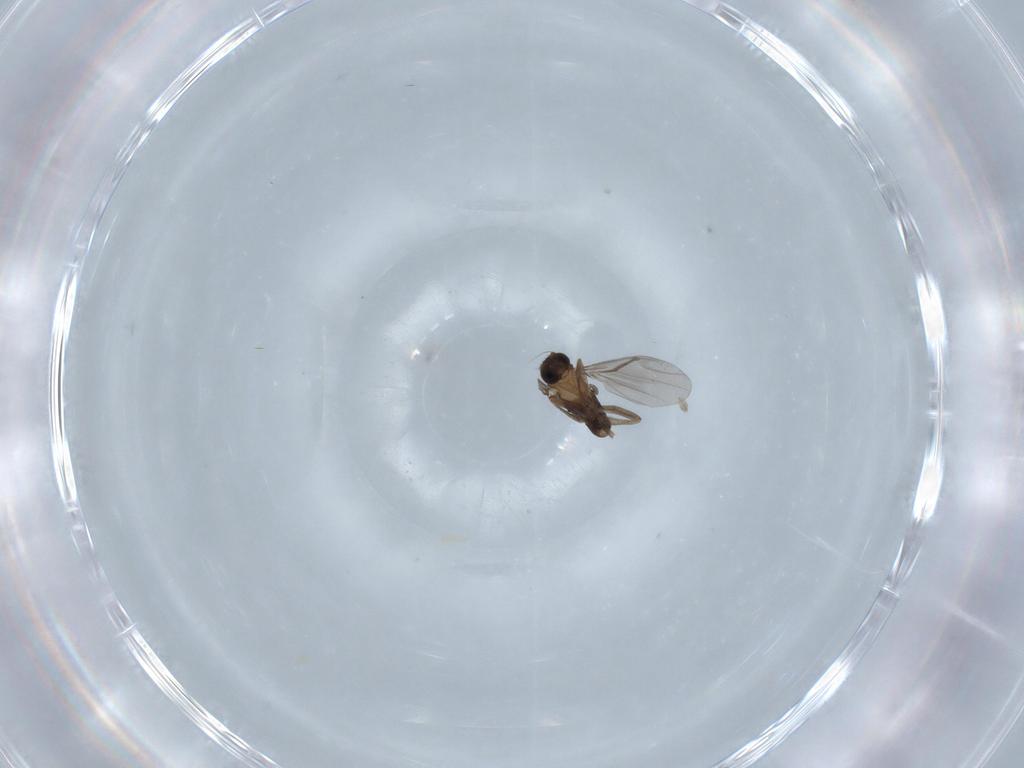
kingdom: Animalia
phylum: Arthropoda
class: Insecta
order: Diptera
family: Phoridae
